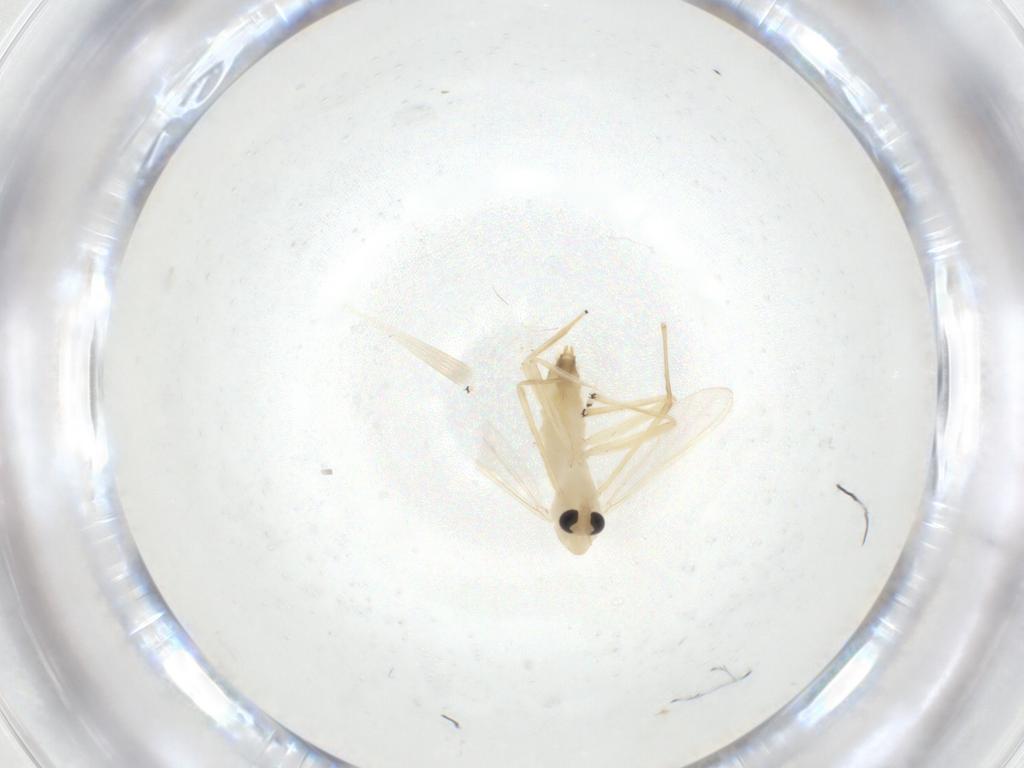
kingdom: Animalia
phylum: Arthropoda
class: Insecta
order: Diptera
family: Chironomidae
